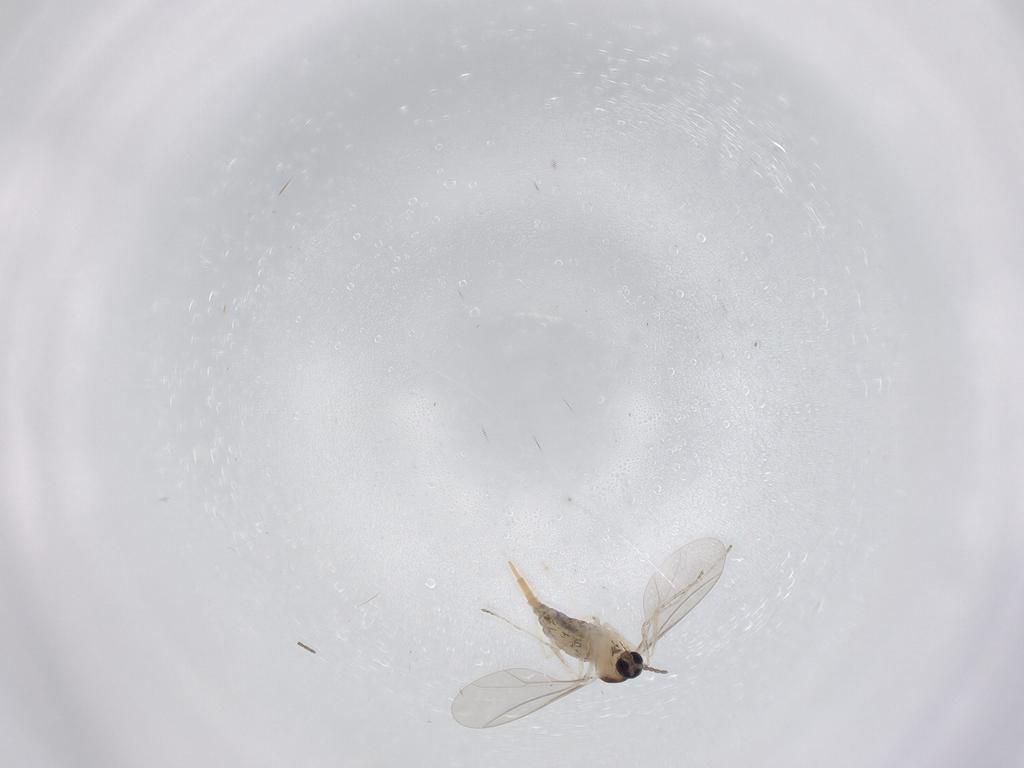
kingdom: Animalia
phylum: Arthropoda
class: Insecta
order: Diptera
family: Cecidomyiidae
